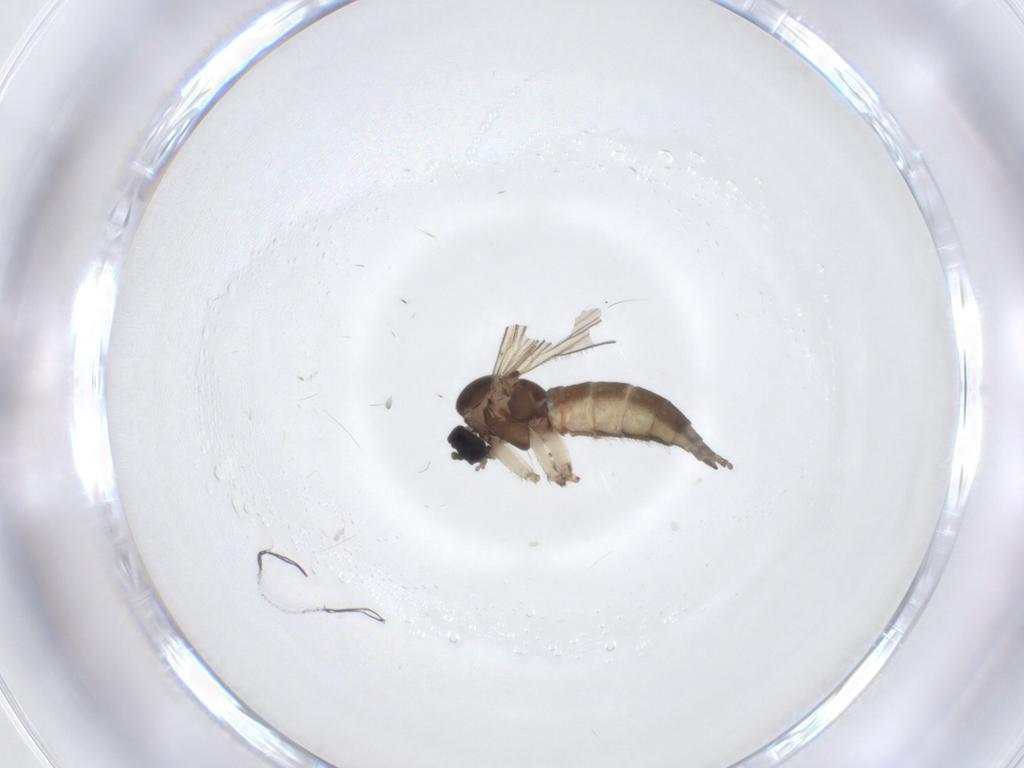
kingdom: Animalia
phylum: Arthropoda
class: Insecta
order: Diptera
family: Sciaridae
